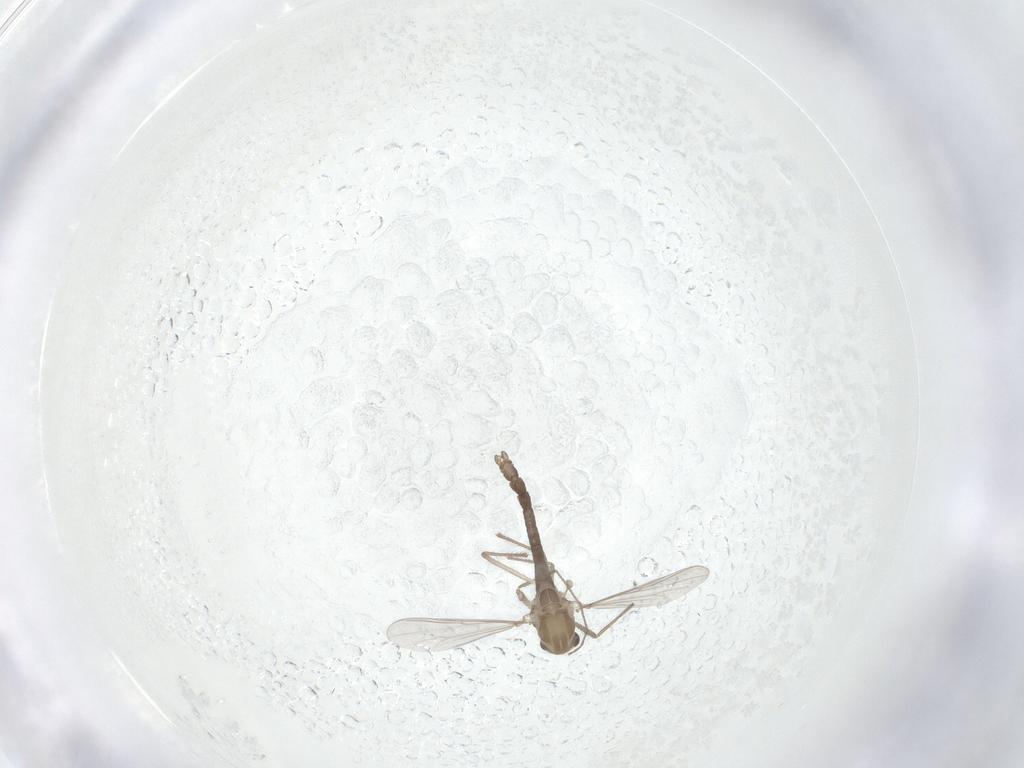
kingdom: Animalia
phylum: Arthropoda
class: Insecta
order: Diptera
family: Chironomidae
